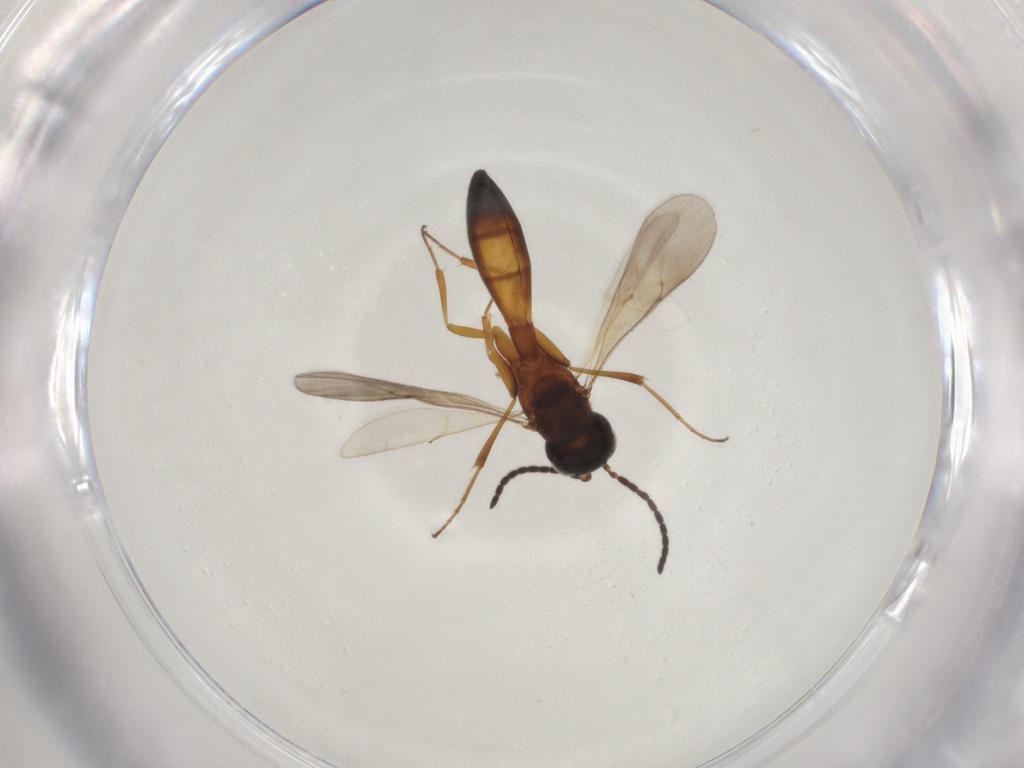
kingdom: Animalia
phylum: Arthropoda
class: Insecta
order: Hymenoptera
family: Scelionidae
